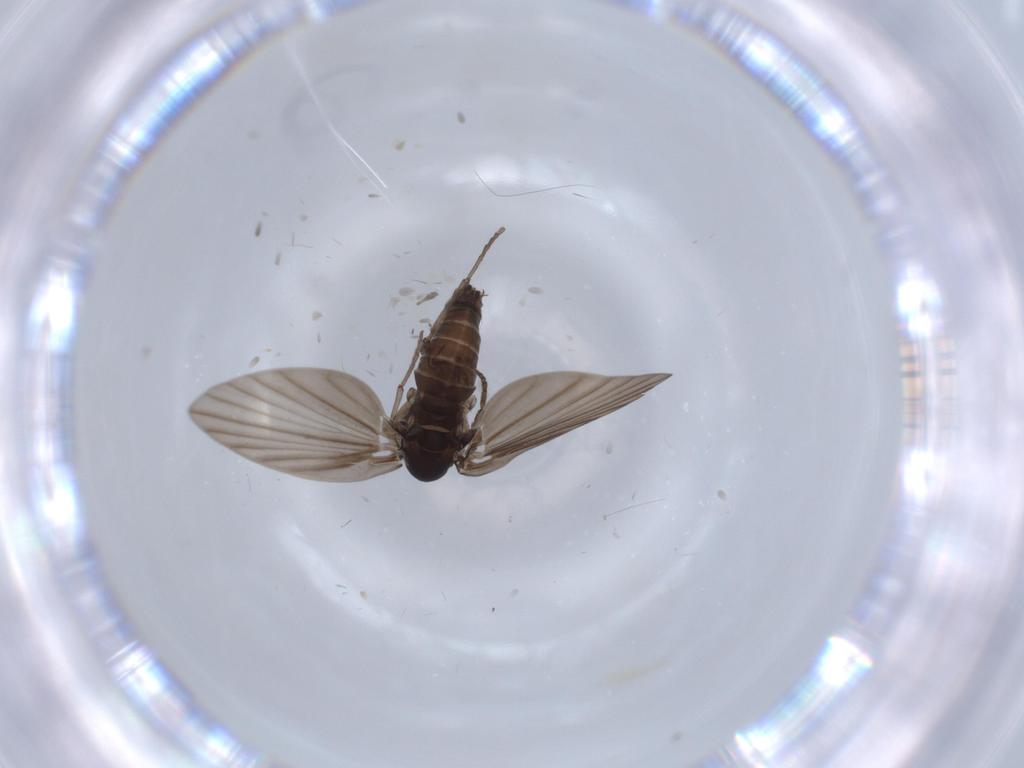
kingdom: Animalia
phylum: Arthropoda
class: Insecta
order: Diptera
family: Psychodidae
